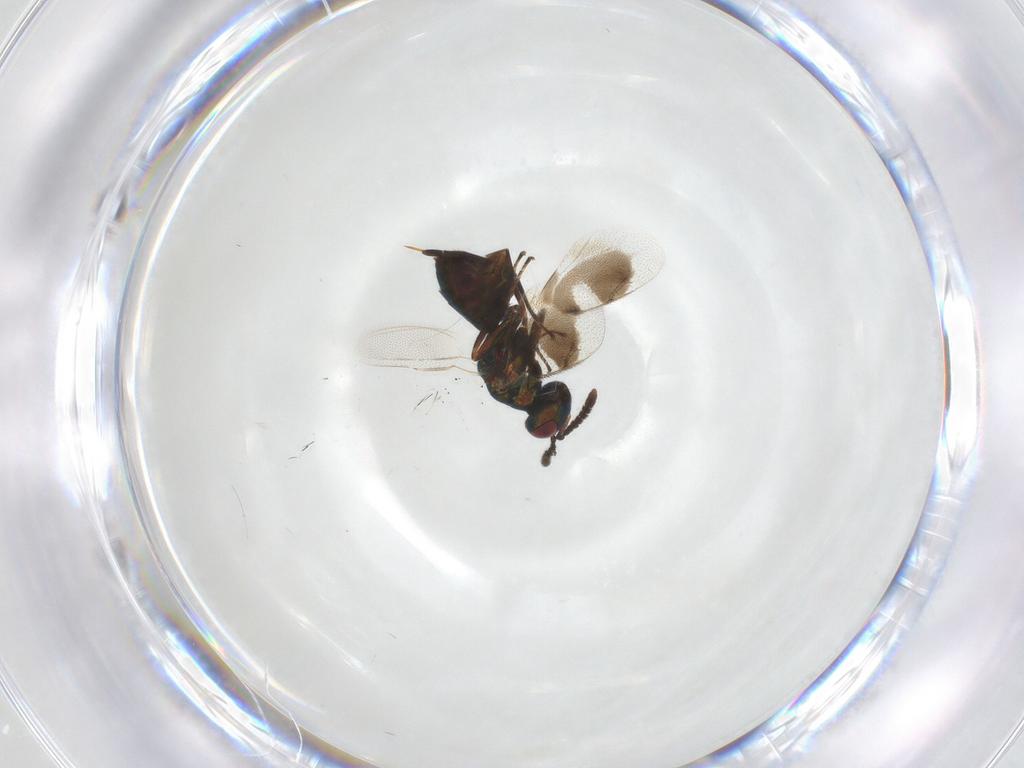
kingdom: Animalia
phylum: Arthropoda
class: Insecta
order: Hymenoptera
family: Pteromalidae
